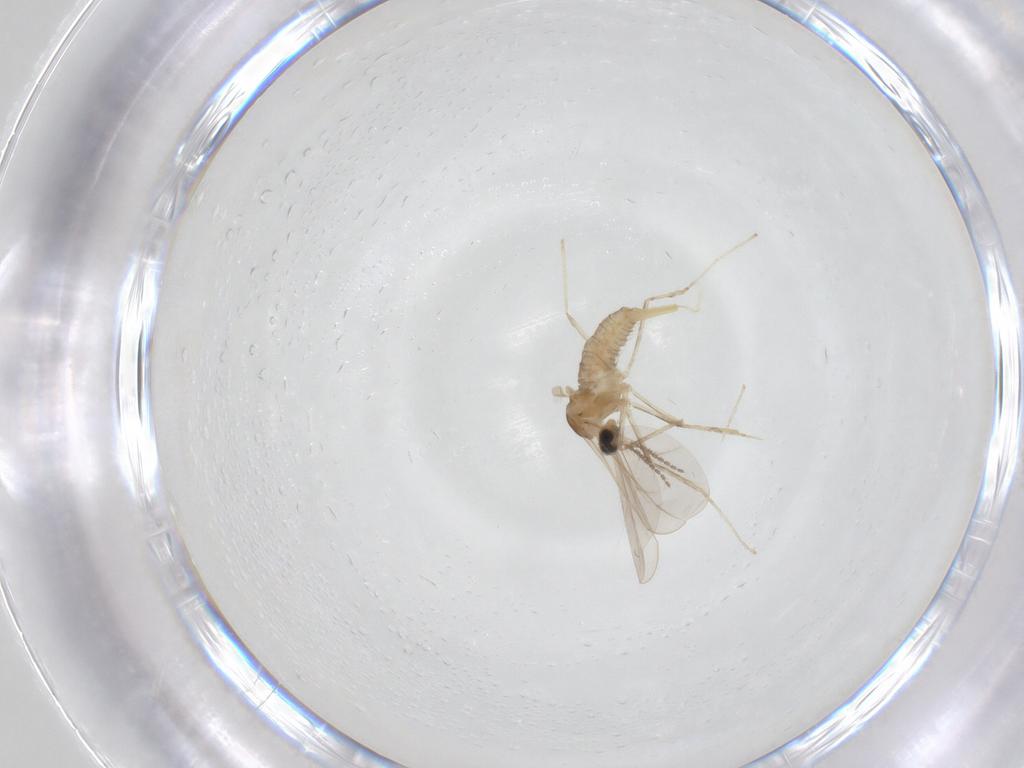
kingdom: Animalia
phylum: Arthropoda
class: Insecta
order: Diptera
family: Cecidomyiidae
